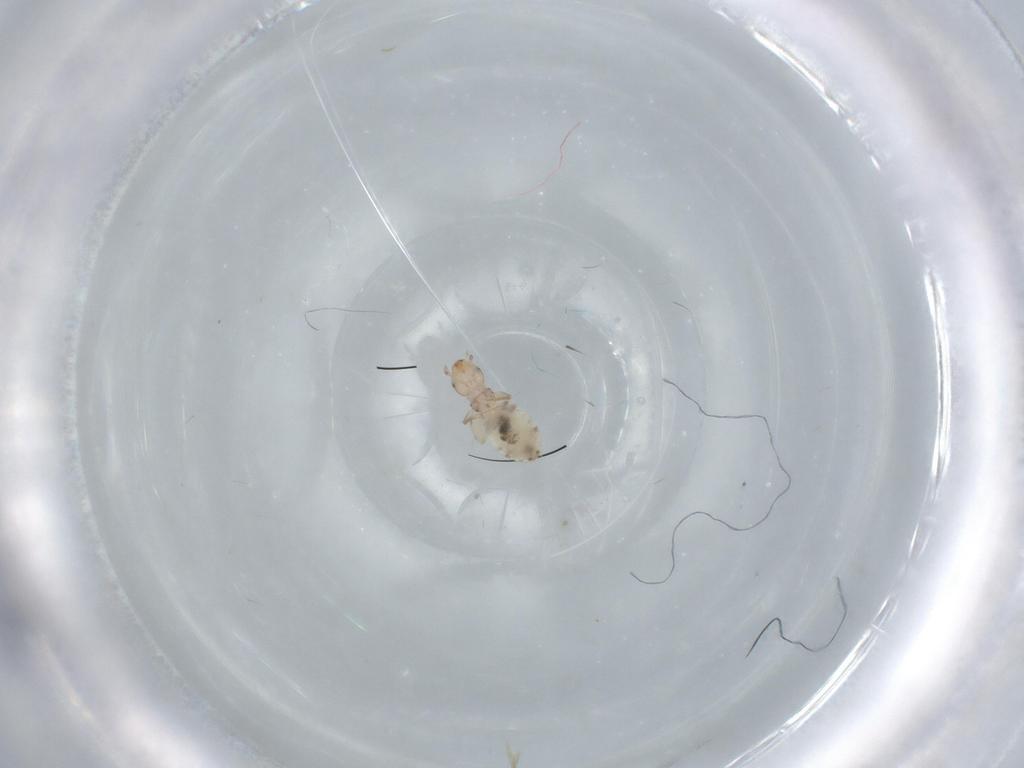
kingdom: Animalia
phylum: Arthropoda
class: Insecta
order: Psocodea
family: Liposcelididae
